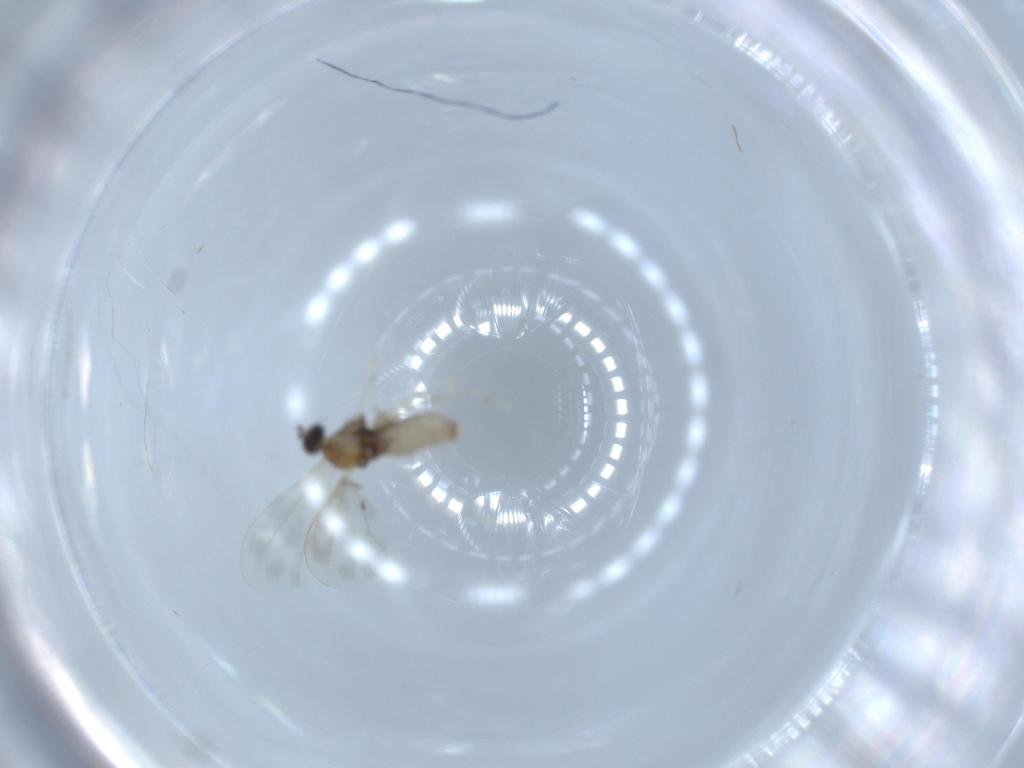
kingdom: Animalia
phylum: Arthropoda
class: Insecta
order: Diptera
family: Cecidomyiidae
